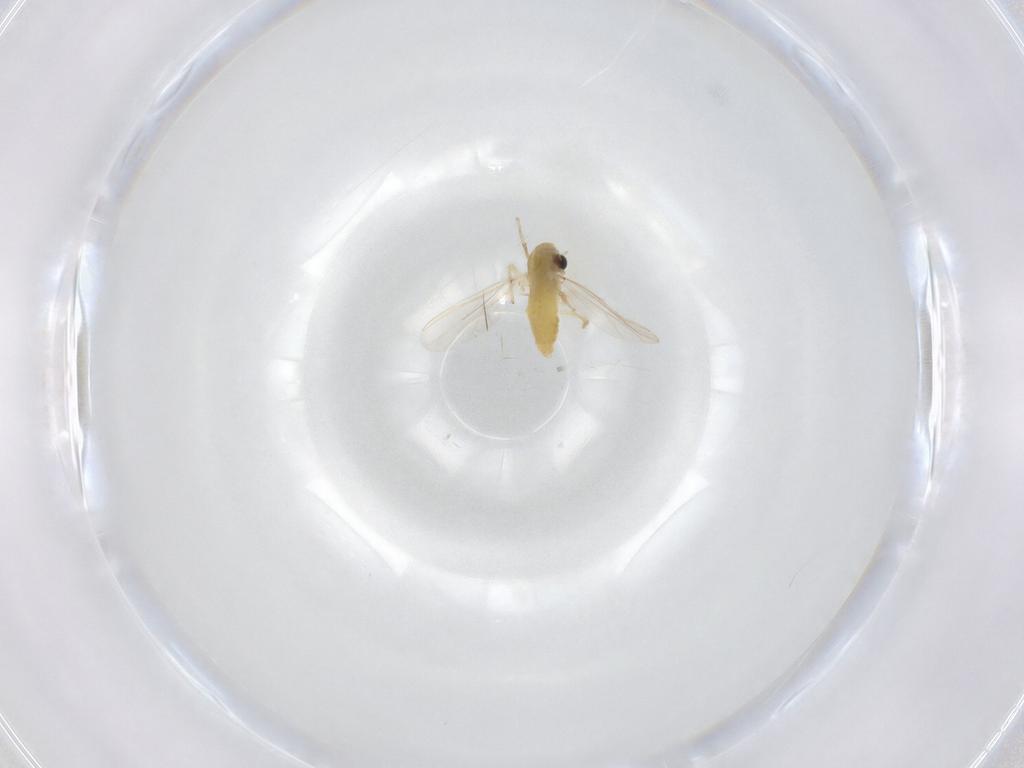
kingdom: Animalia
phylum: Arthropoda
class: Insecta
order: Diptera
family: Chironomidae
